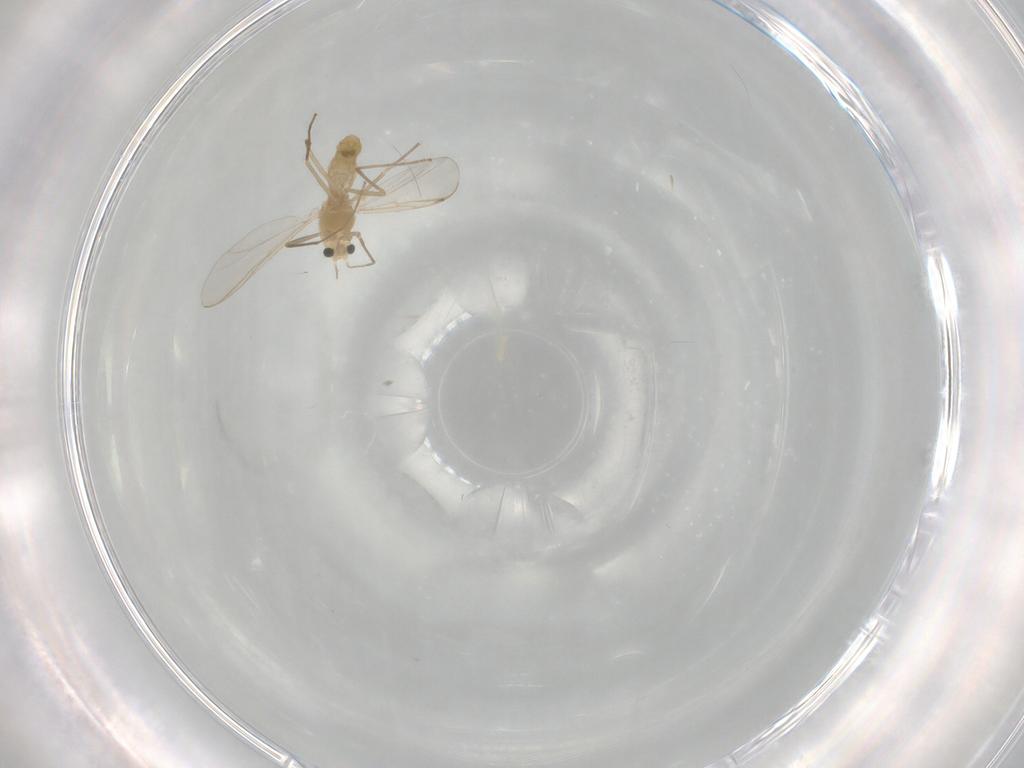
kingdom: Animalia
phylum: Arthropoda
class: Insecta
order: Diptera
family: Chironomidae
